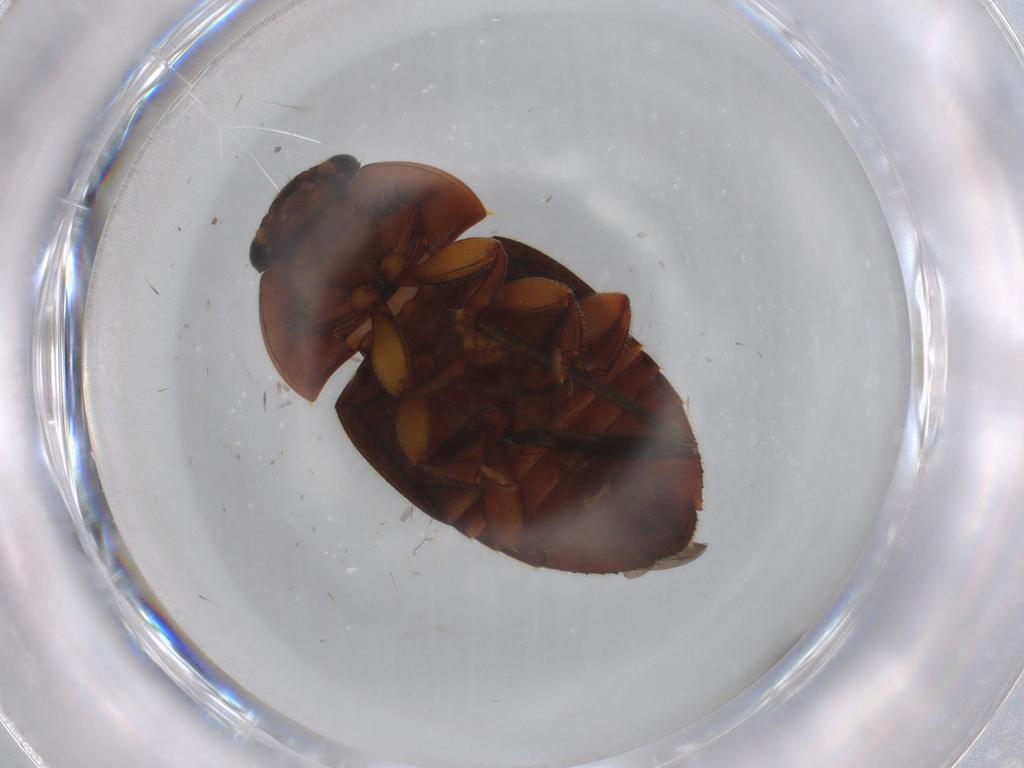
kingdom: Animalia
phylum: Arthropoda
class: Insecta
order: Coleoptera
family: Nitidulidae
